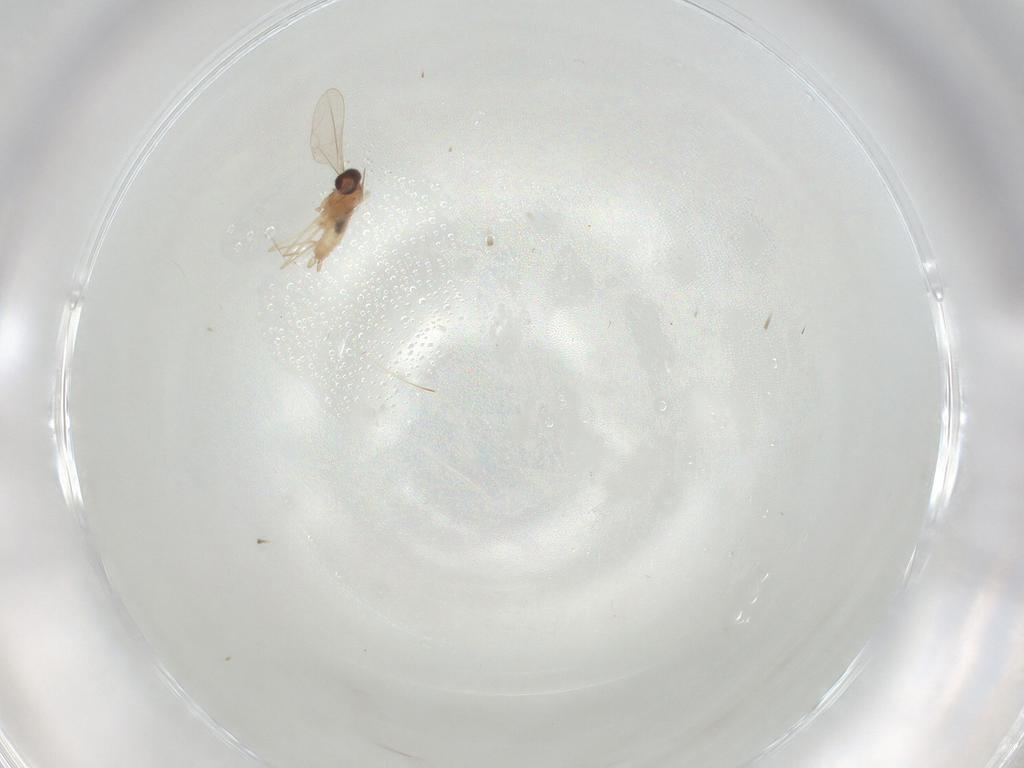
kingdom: Animalia
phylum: Arthropoda
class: Insecta
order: Diptera
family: Cecidomyiidae
